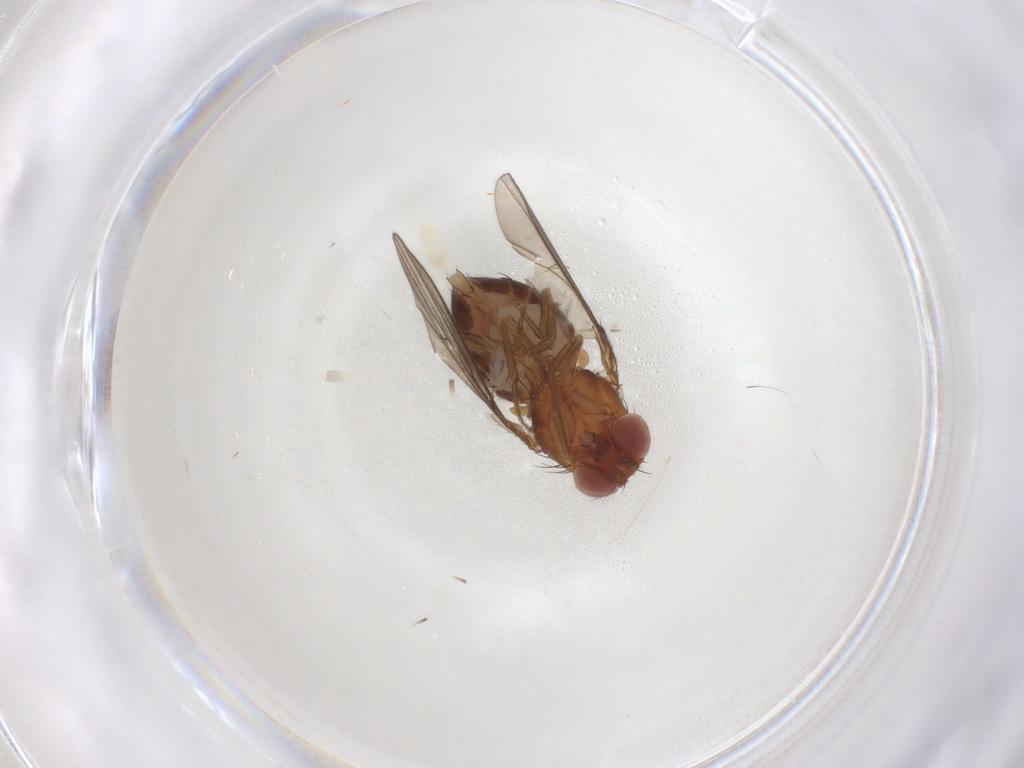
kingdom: Animalia
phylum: Arthropoda
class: Insecta
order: Diptera
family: Drosophilidae
